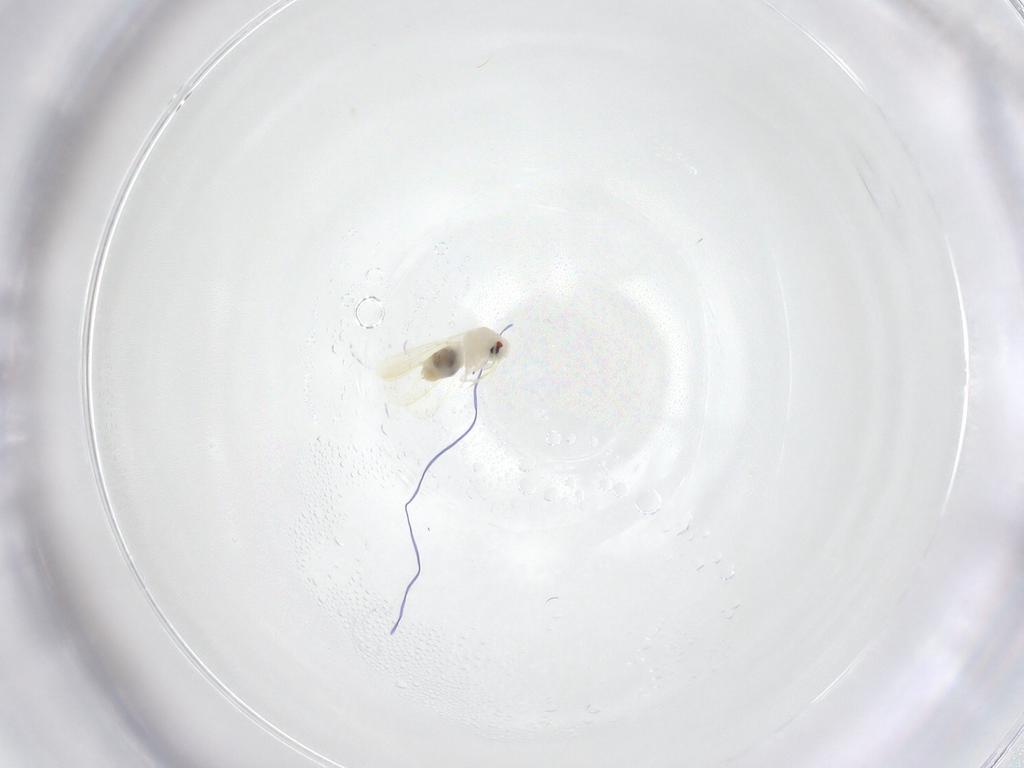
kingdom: Animalia
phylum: Arthropoda
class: Insecta
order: Hemiptera
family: Aleyrodidae
